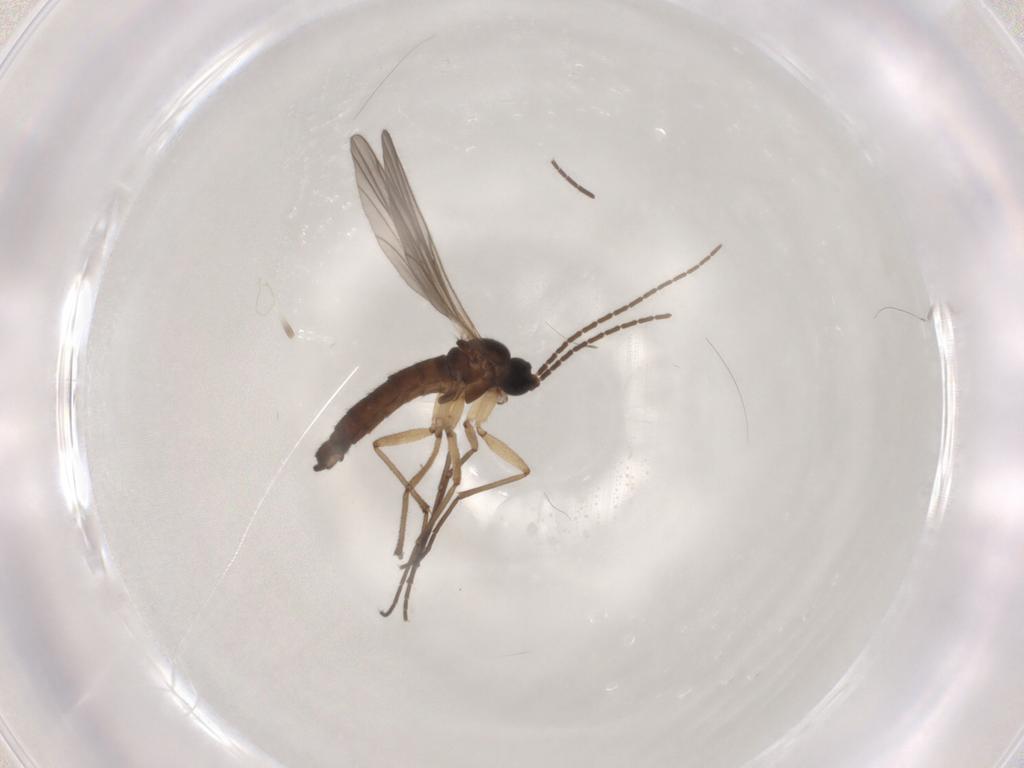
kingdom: Animalia
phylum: Arthropoda
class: Insecta
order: Diptera
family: Sciaridae
